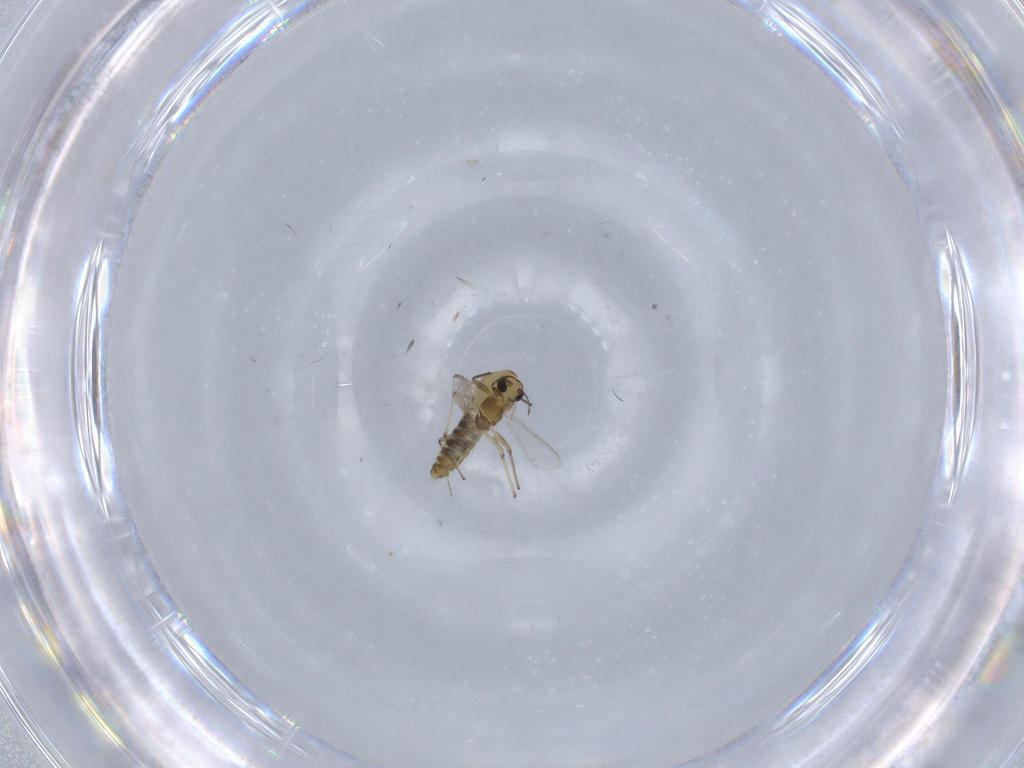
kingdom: Animalia
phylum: Arthropoda
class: Insecta
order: Diptera
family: Chironomidae
